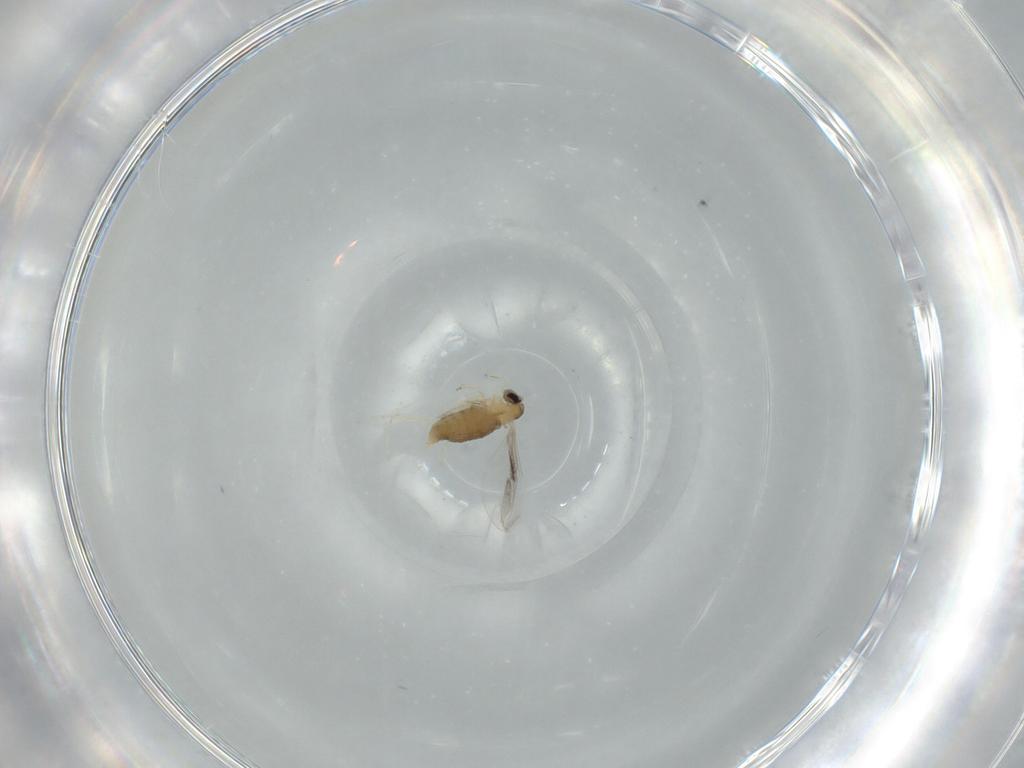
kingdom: Animalia
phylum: Arthropoda
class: Insecta
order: Diptera
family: Cecidomyiidae
